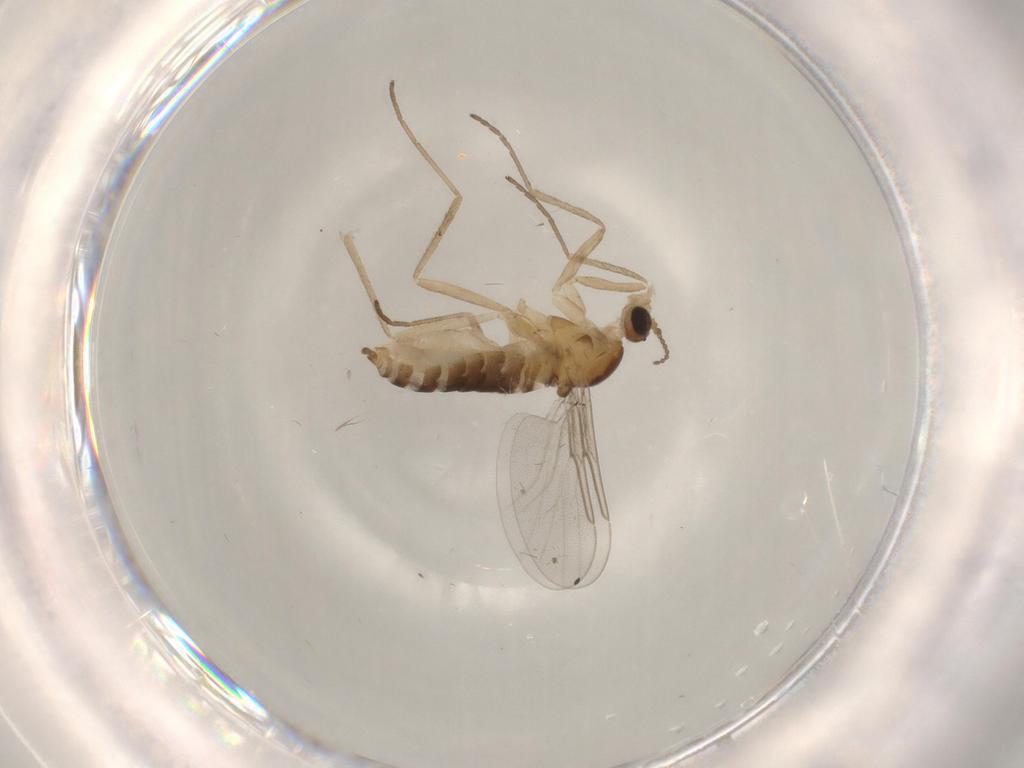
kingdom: Animalia
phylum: Arthropoda
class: Insecta
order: Diptera
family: Cecidomyiidae
